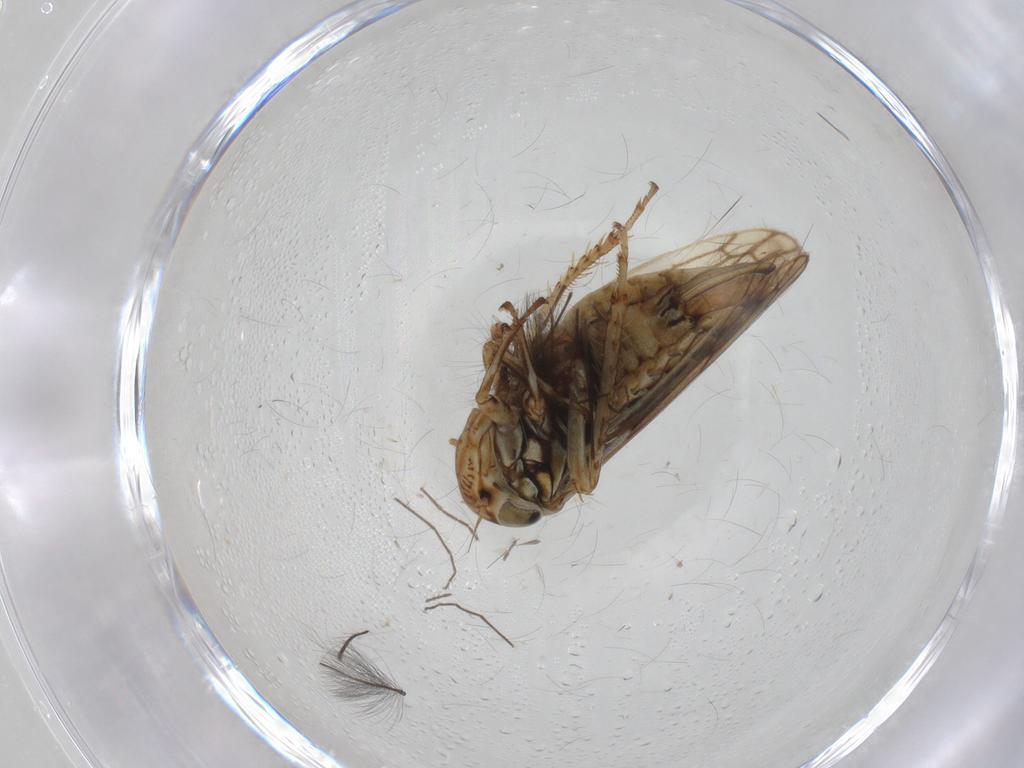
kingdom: Animalia
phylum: Arthropoda
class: Insecta
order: Hemiptera
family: Cicadellidae
